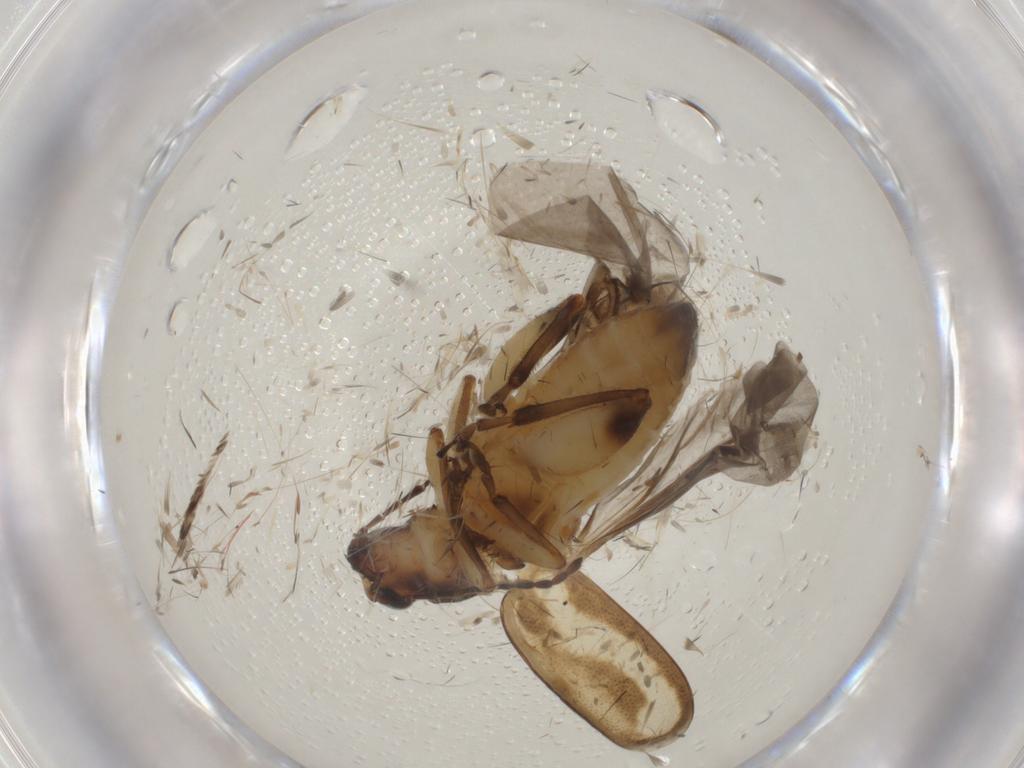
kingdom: Animalia
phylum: Arthropoda
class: Insecta
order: Coleoptera
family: Chrysomelidae
